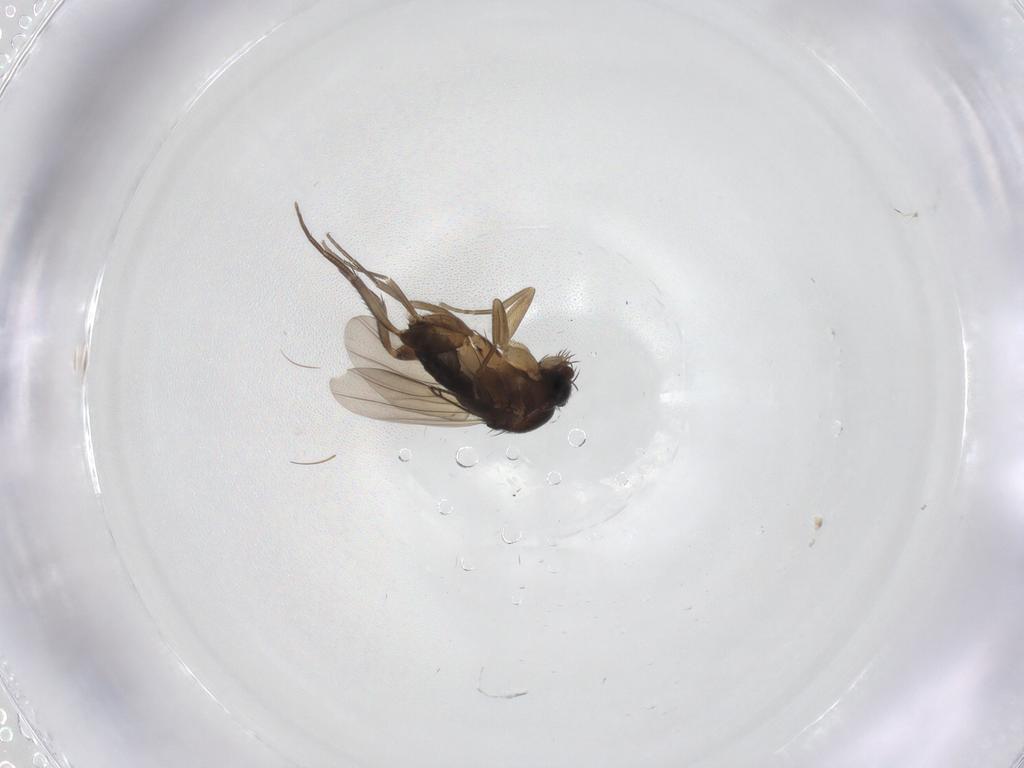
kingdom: Animalia
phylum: Arthropoda
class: Insecta
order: Diptera
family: Phoridae
